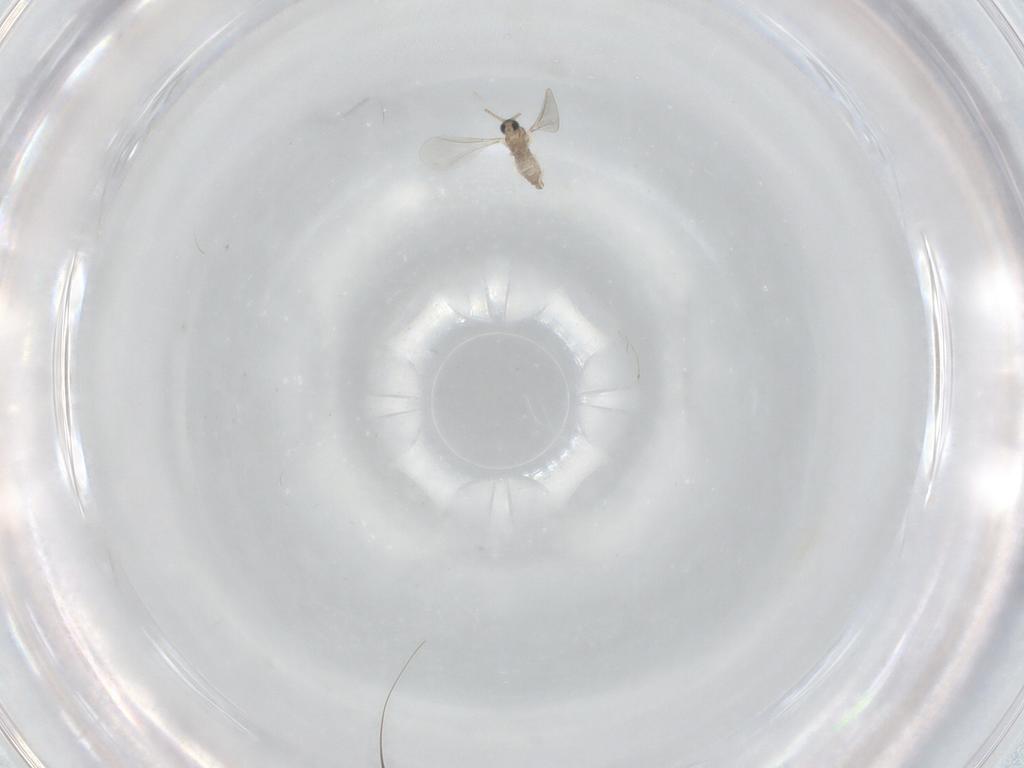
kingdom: Animalia
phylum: Arthropoda
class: Insecta
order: Diptera
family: Cecidomyiidae
